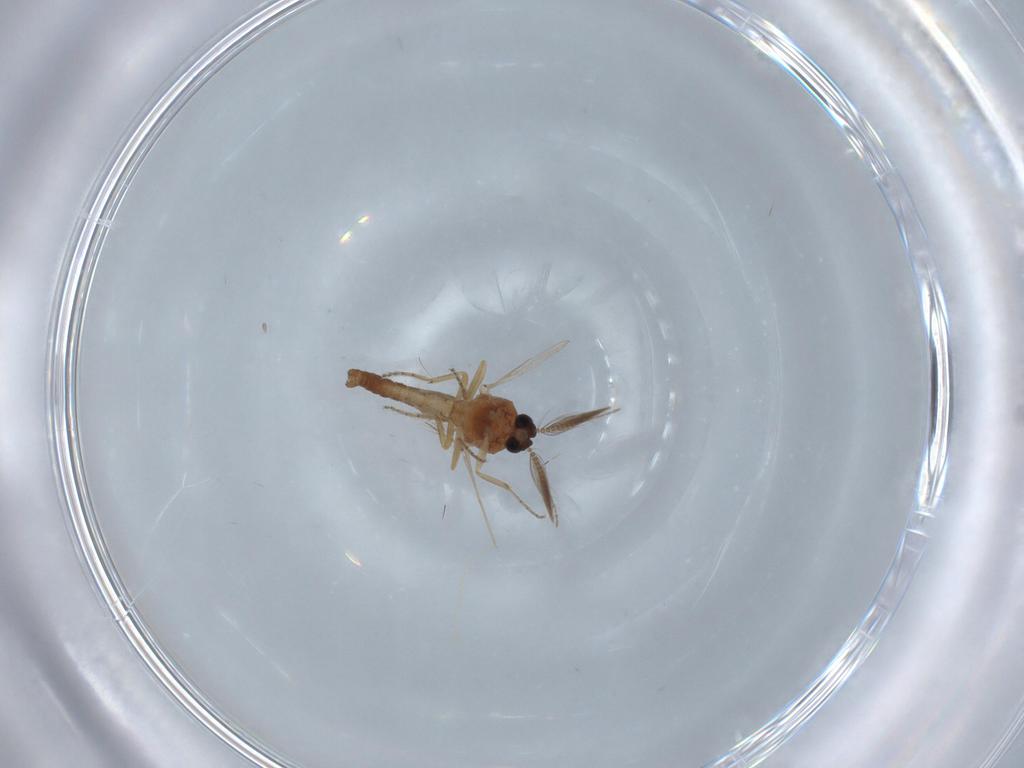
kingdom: Animalia
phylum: Arthropoda
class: Insecta
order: Diptera
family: Ceratopogonidae
